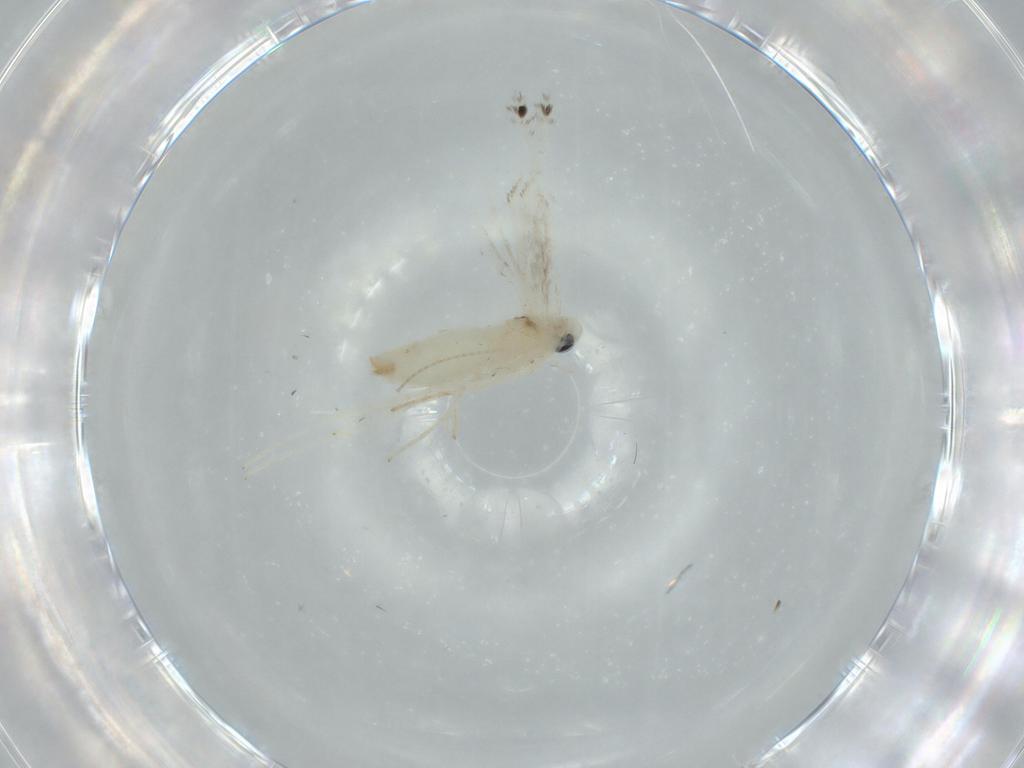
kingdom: Animalia
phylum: Arthropoda
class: Insecta
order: Lepidoptera
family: Gracillariidae
